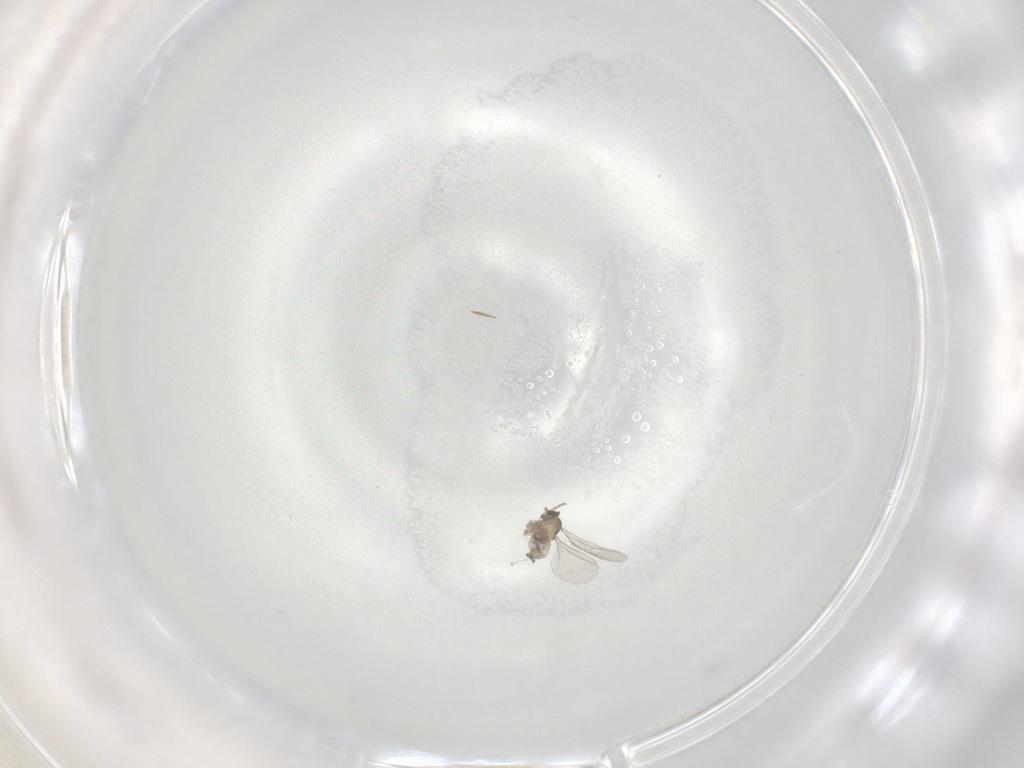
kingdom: Animalia
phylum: Arthropoda
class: Insecta
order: Diptera
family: Cecidomyiidae
